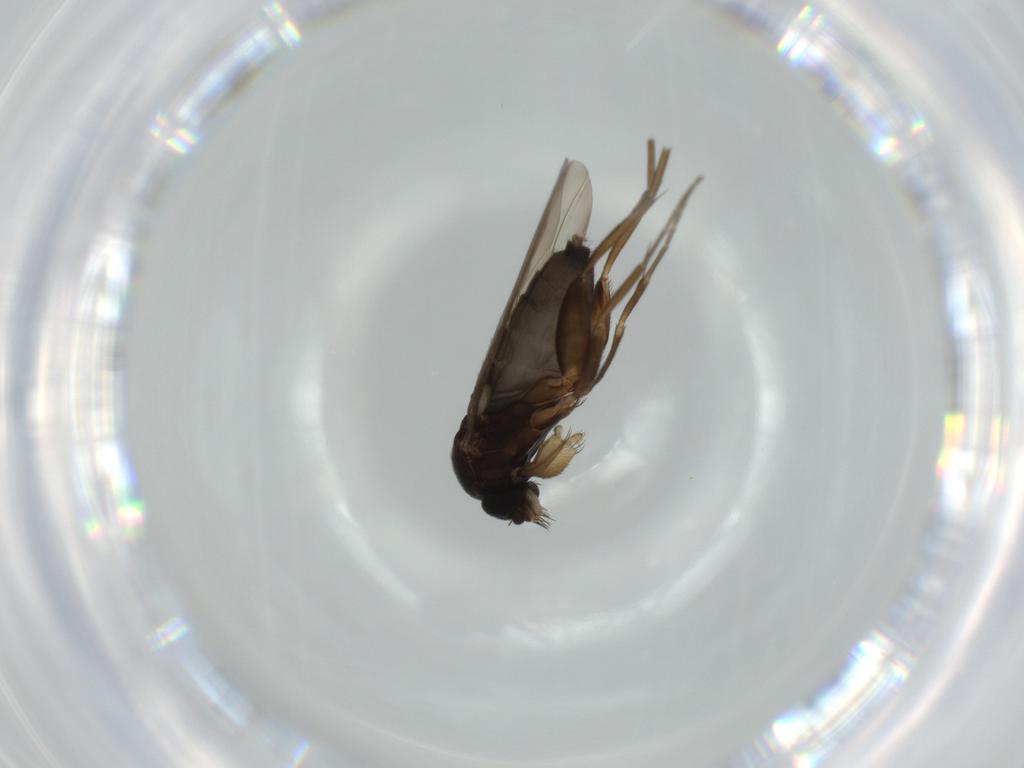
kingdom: Animalia
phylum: Arthropoda
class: Insecta
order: Diptera
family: Phoridae
